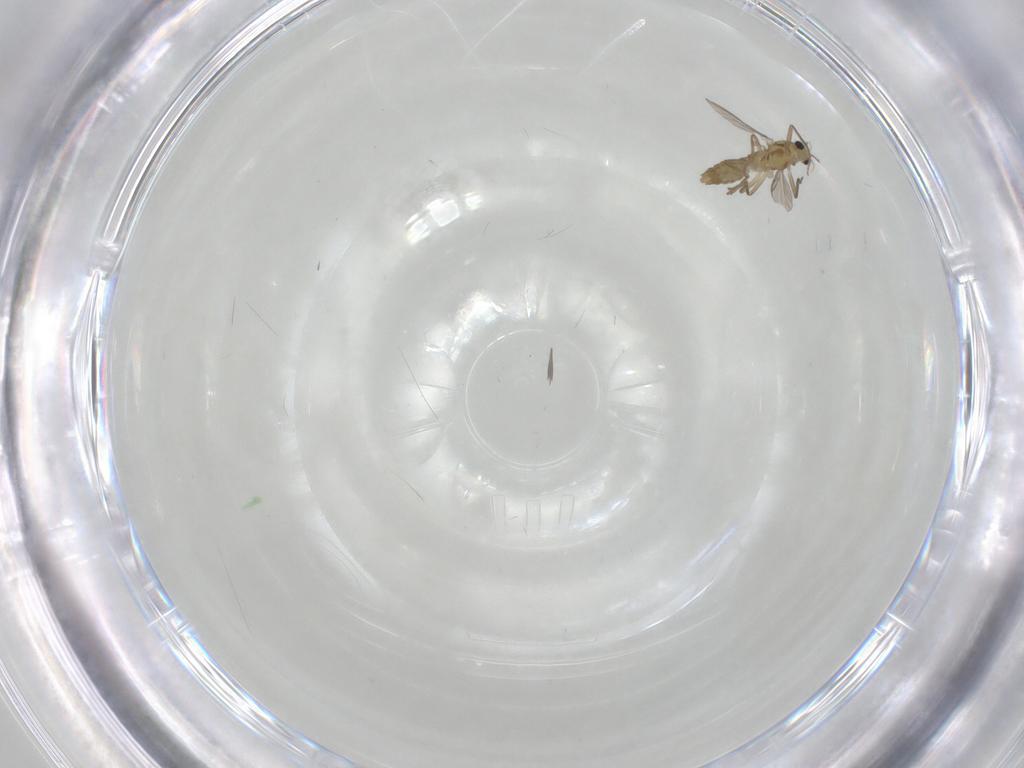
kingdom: Animalia
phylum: Arthropoda
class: Insecta
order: Diptera
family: Chironomidae
